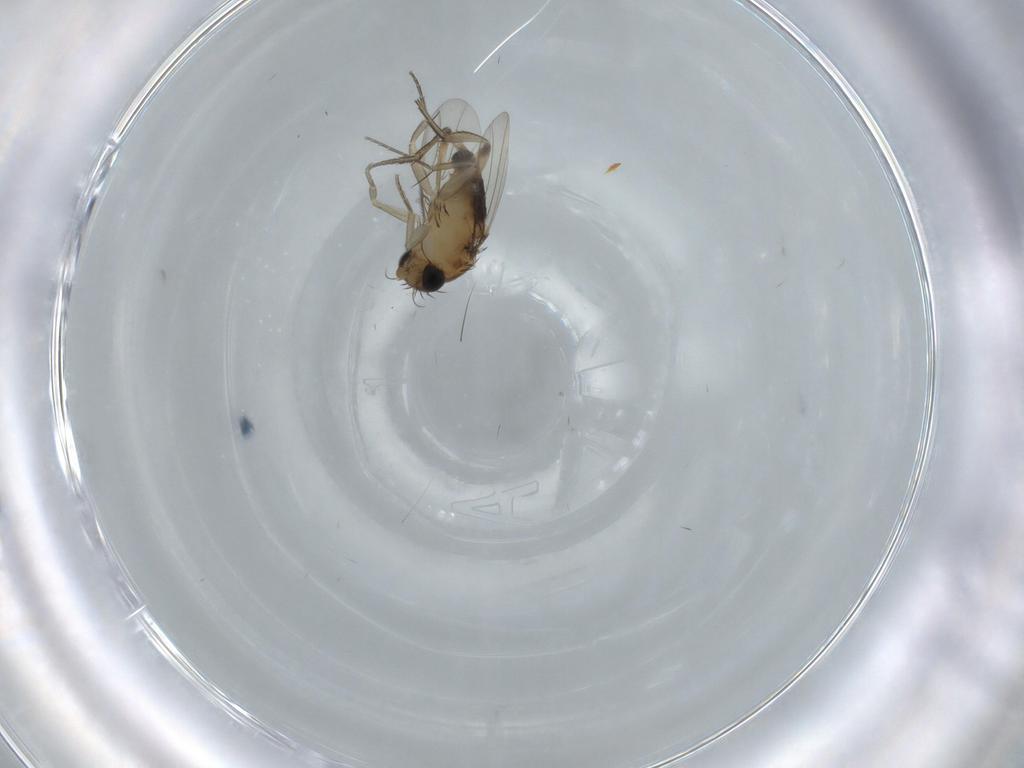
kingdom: Animalia
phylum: Arthropoda
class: Insecta
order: Diptera
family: Phoridae
